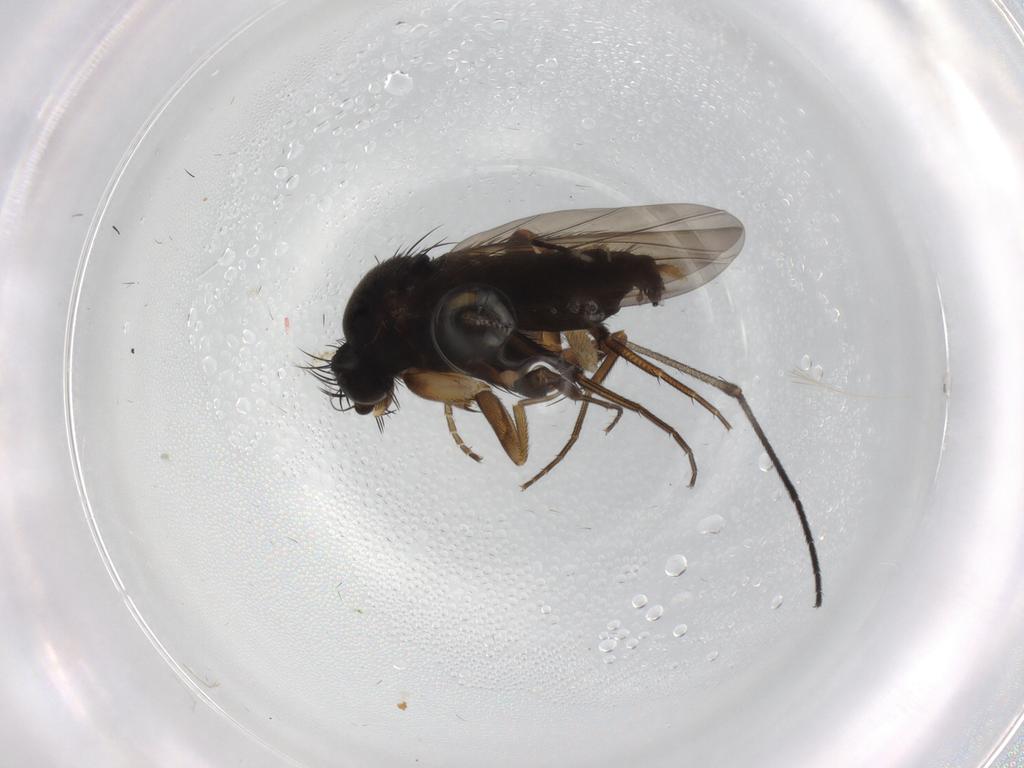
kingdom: Animalia
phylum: Arthropoda
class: Insecta
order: Diptera
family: Phoridae
